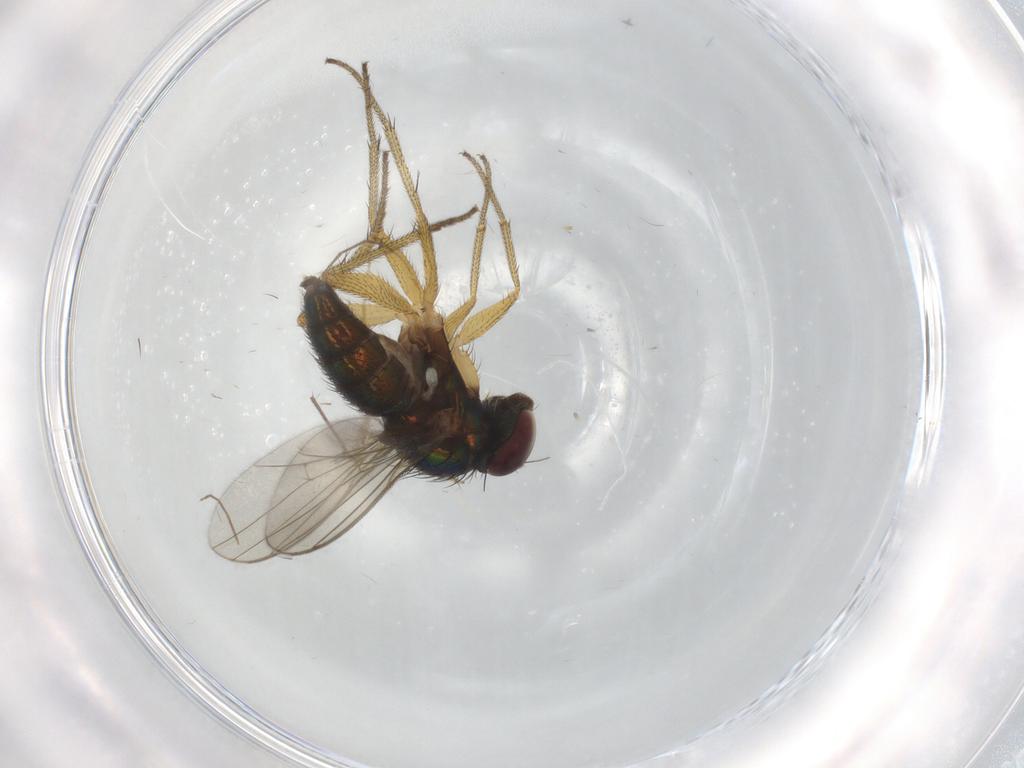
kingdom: Animalia
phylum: Arthropoda
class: Insecta
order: Diptera
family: Chironomidae
